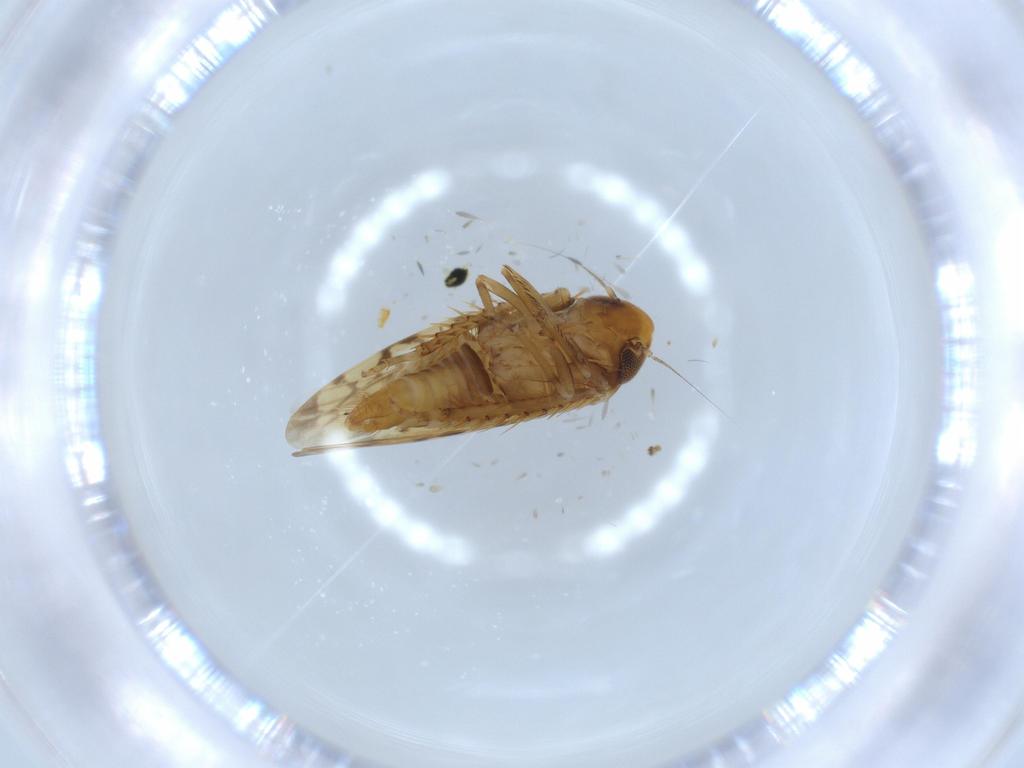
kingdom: Animalia
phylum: Arthropoda
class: Insecta
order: Hemiptera
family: Cicadellidae
